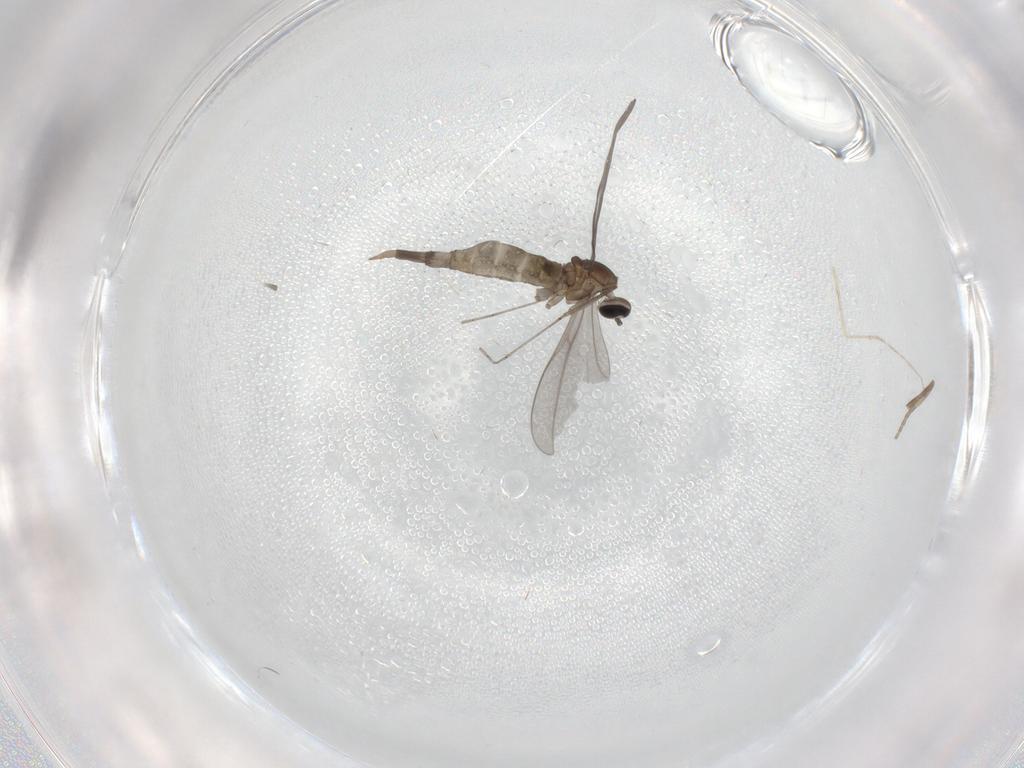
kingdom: Animalia
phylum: Arthropoda
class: Insecta
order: Diptera
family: Cecidomyiidae
